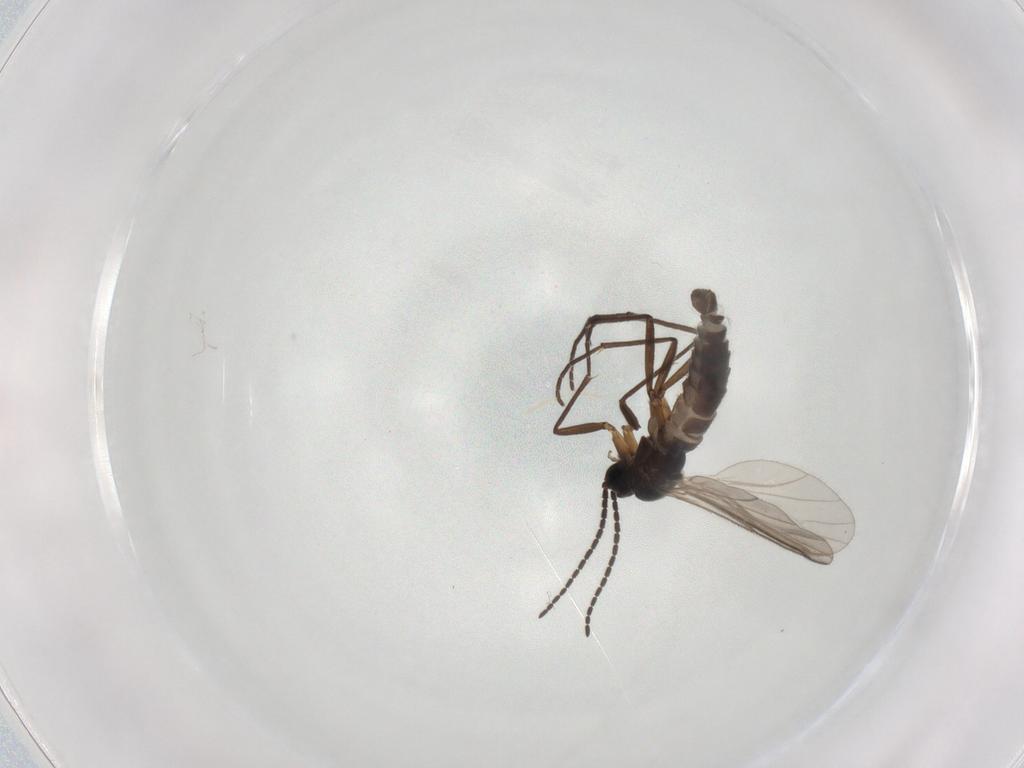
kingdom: Animalia
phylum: Arthropoda
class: Insecta
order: Diptera
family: Sciaridae
